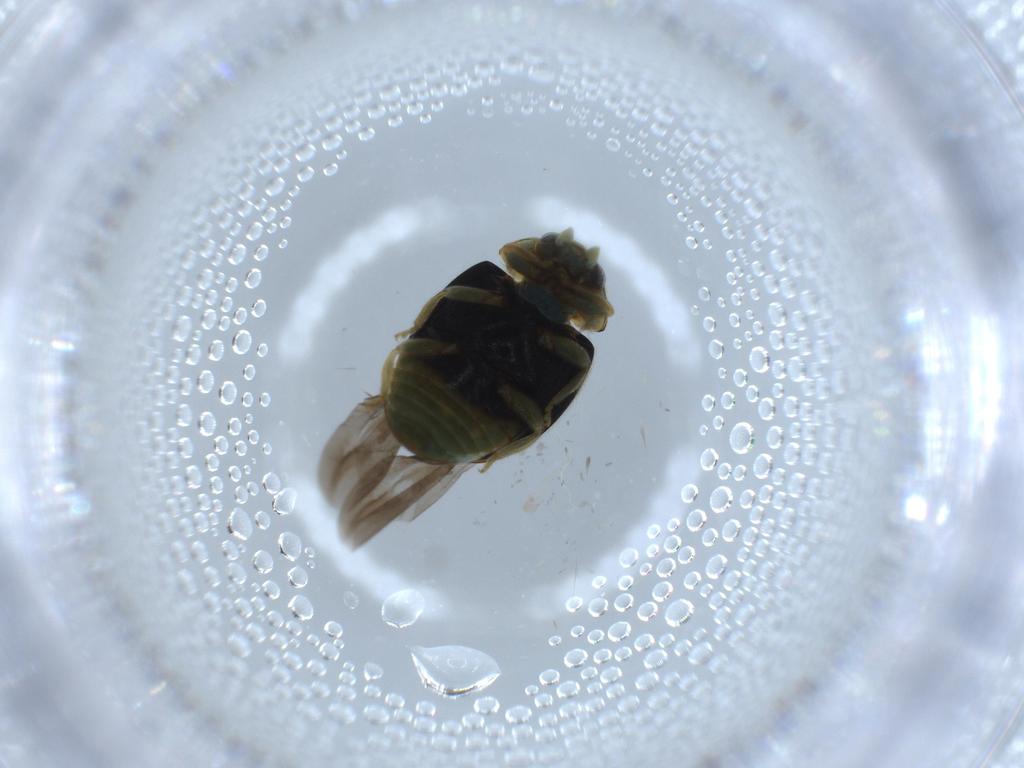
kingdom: Animalia
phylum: Arthropoda
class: Insecta
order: Coleoptera
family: Coccinellidae
